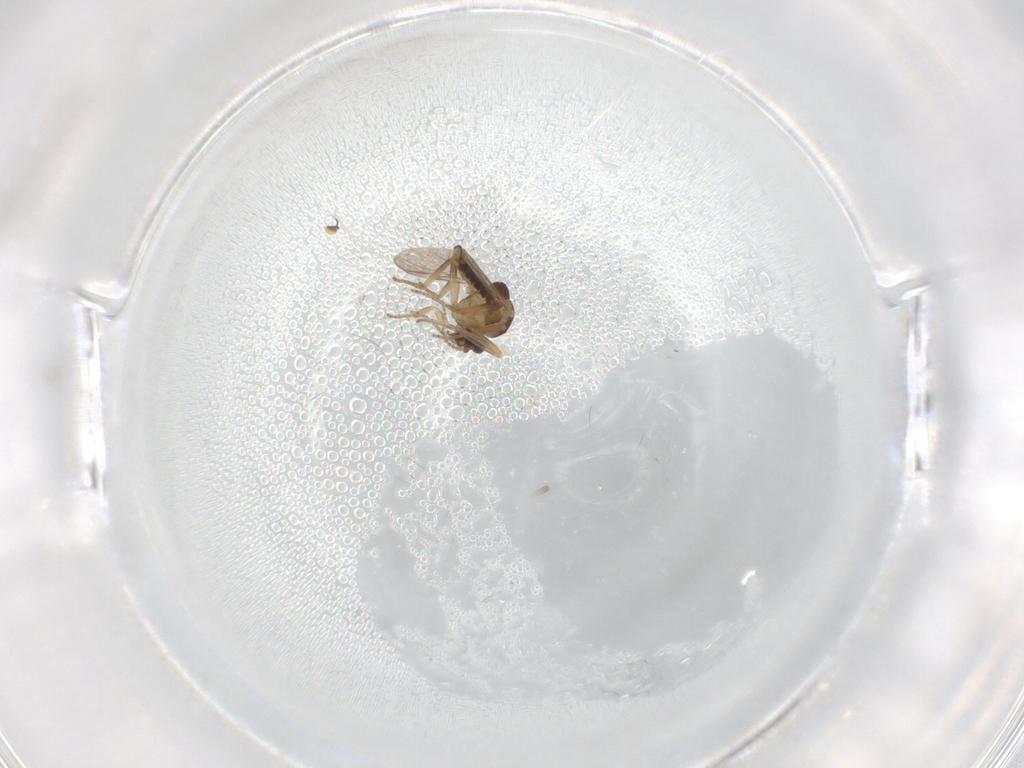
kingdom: Animalia
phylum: Arthropoda
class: Insecta
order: Diptera
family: Ceratopogonidae
